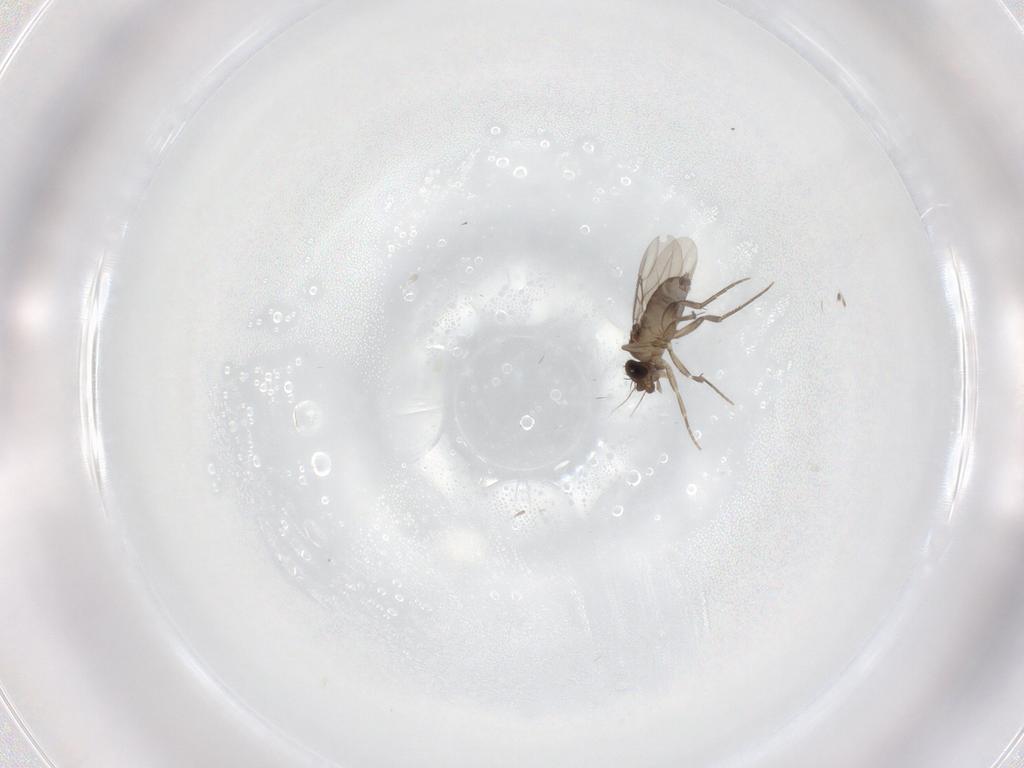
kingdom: Animalia
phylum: Arthropoda
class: Insecta
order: Diptera
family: Phoridae
